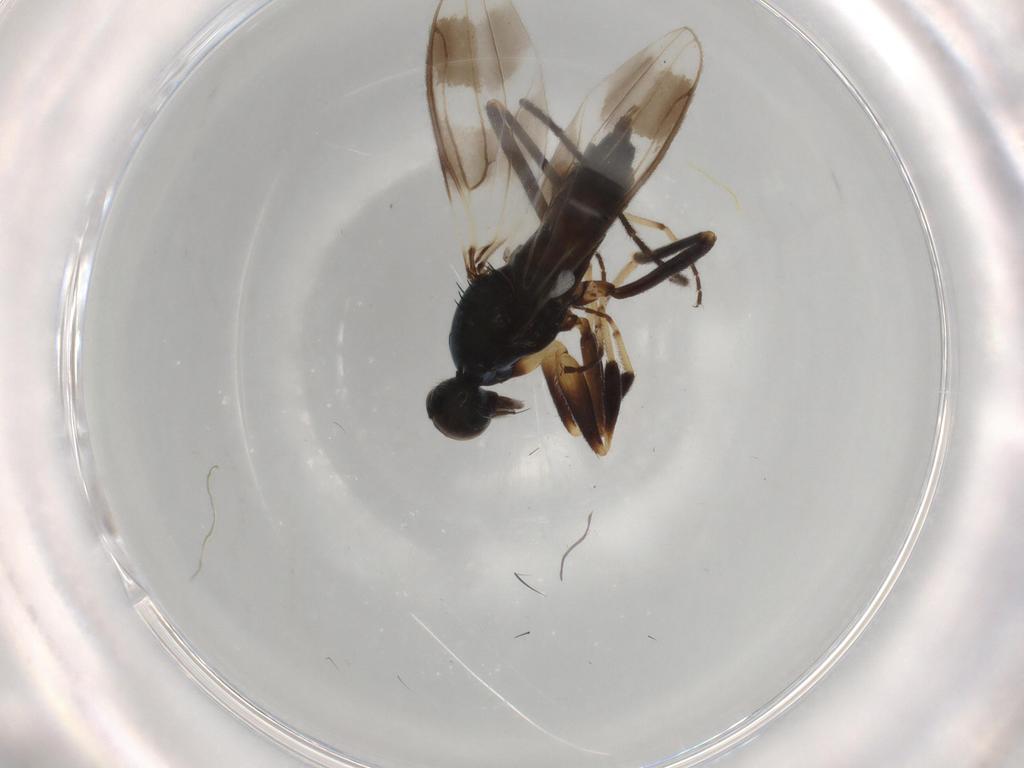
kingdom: Animalia
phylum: Arthropoda
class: Insecta
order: Diptera
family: Hybotidae
